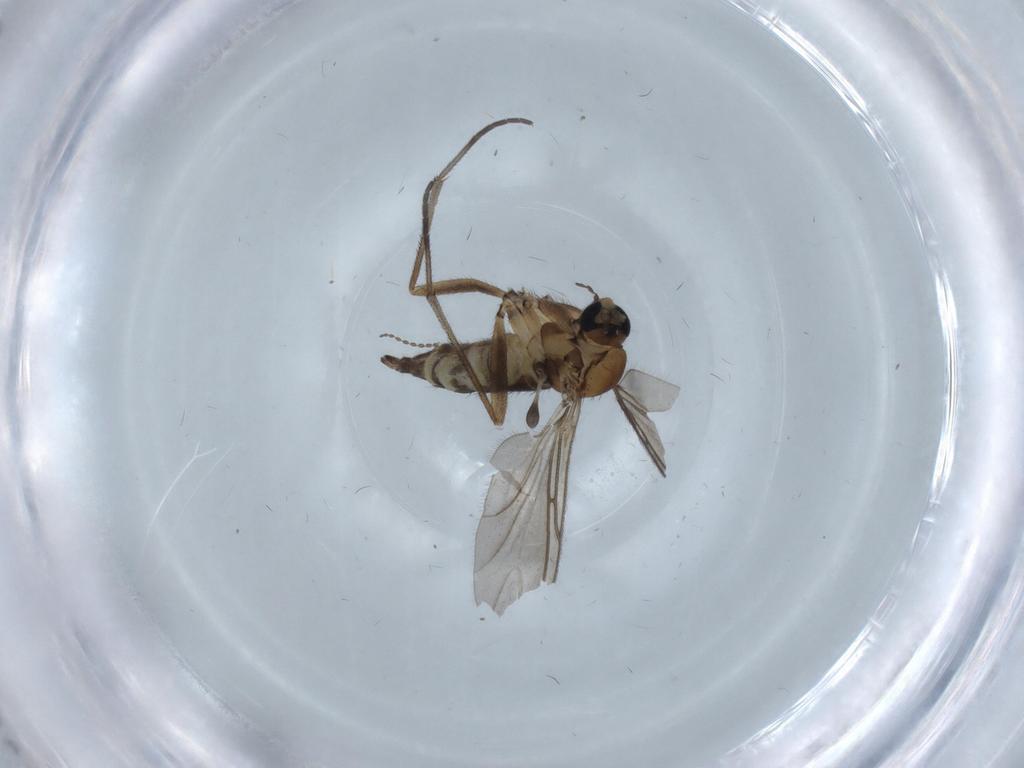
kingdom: Animalia
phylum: Arthropoda
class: Insecta
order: Diptera
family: Sciaridae
